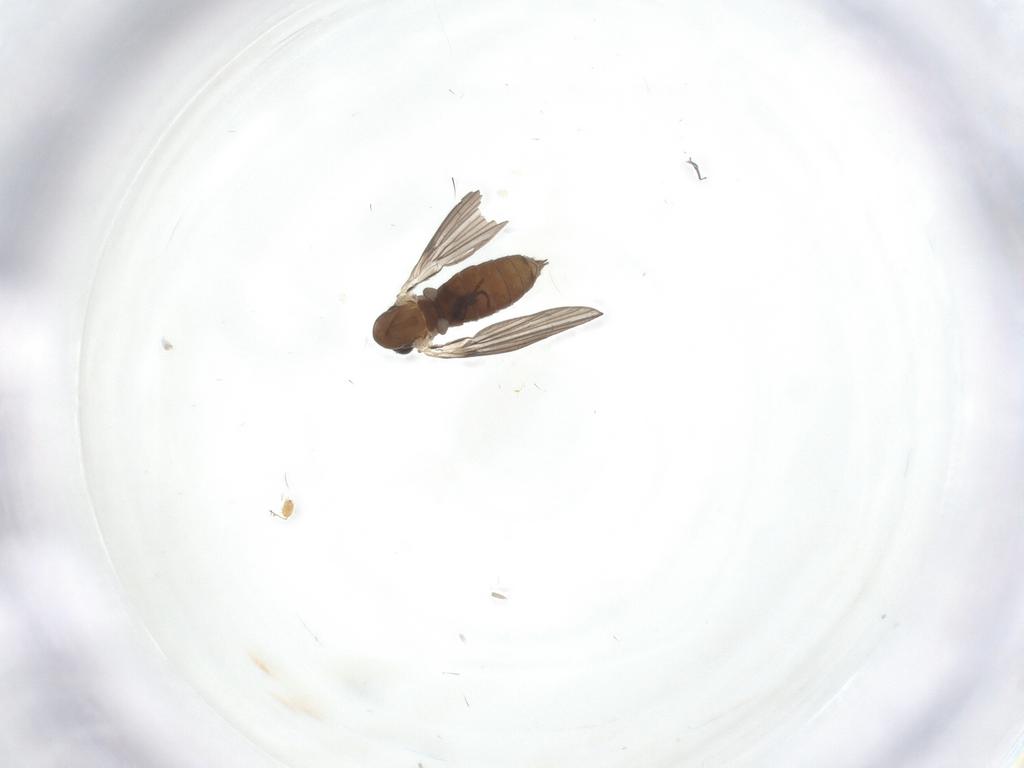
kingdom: Animalia
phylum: Arthropoda
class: Insecta
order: Diptera
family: Psychodidae
